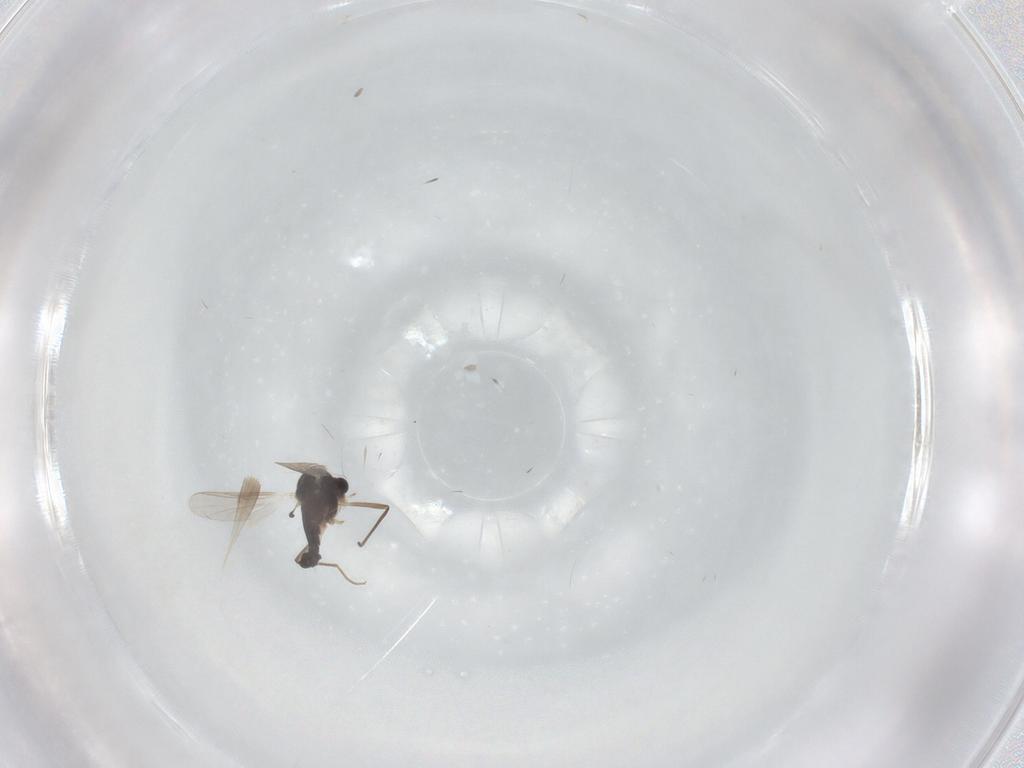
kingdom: Animalia
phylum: Arthropoda
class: Insecta
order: Diptera
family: Chironomidae
